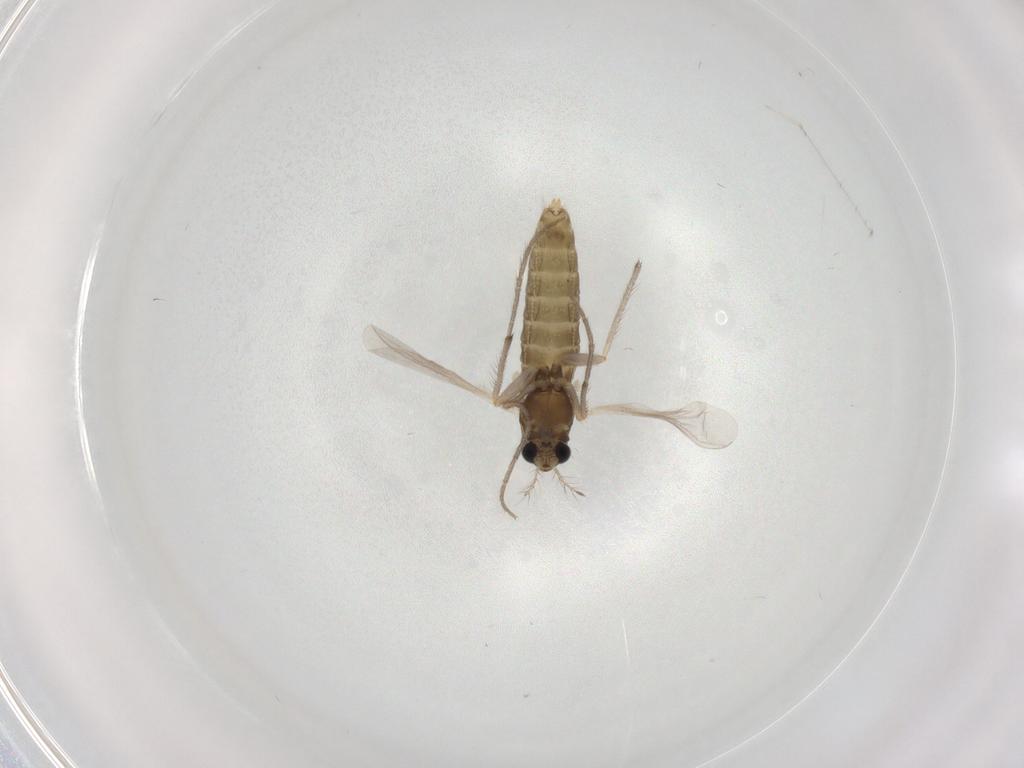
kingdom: Animalia
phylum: Arthropoda
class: Insecta
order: Diptera
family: Chironomidae
